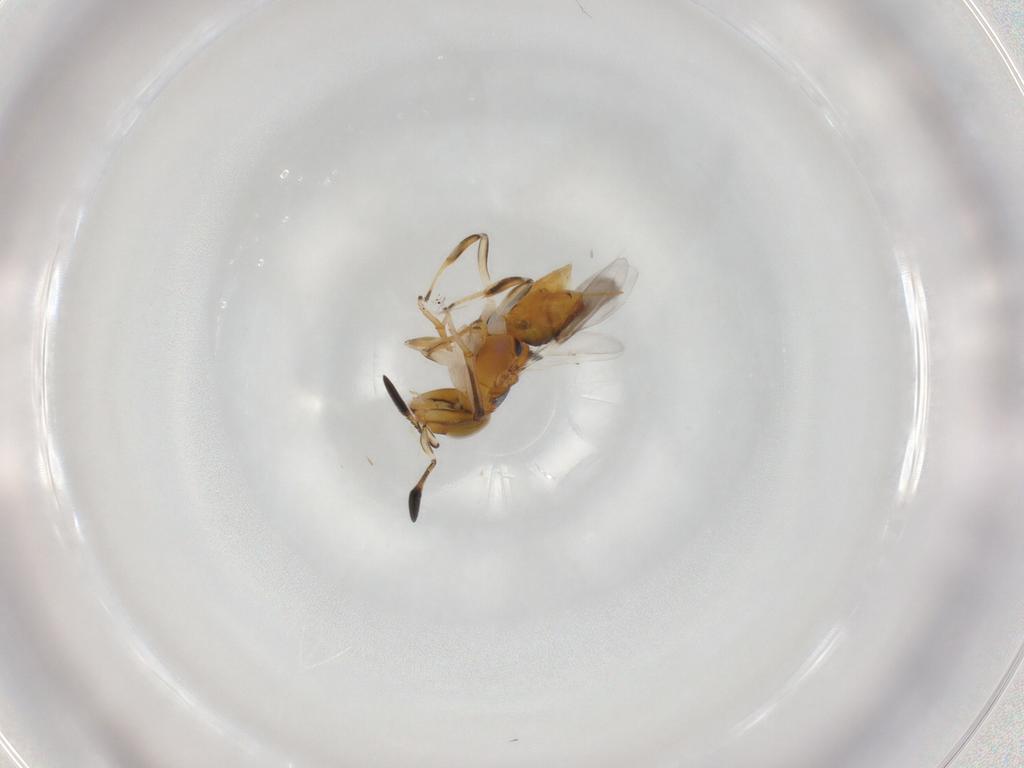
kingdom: Animalia
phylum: Arthropoda
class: Insecta
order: Hymenoptera
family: Encyrtidae
